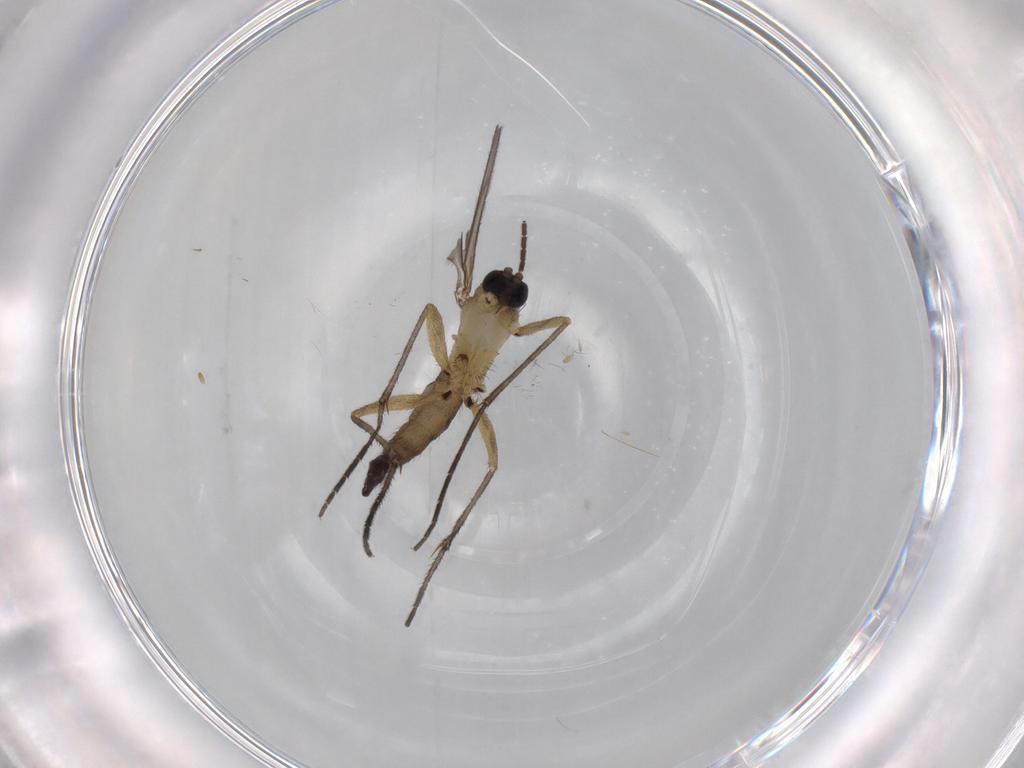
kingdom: Animalia
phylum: Arthropoda
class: Insecta
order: Diptera
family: Sciaridae
